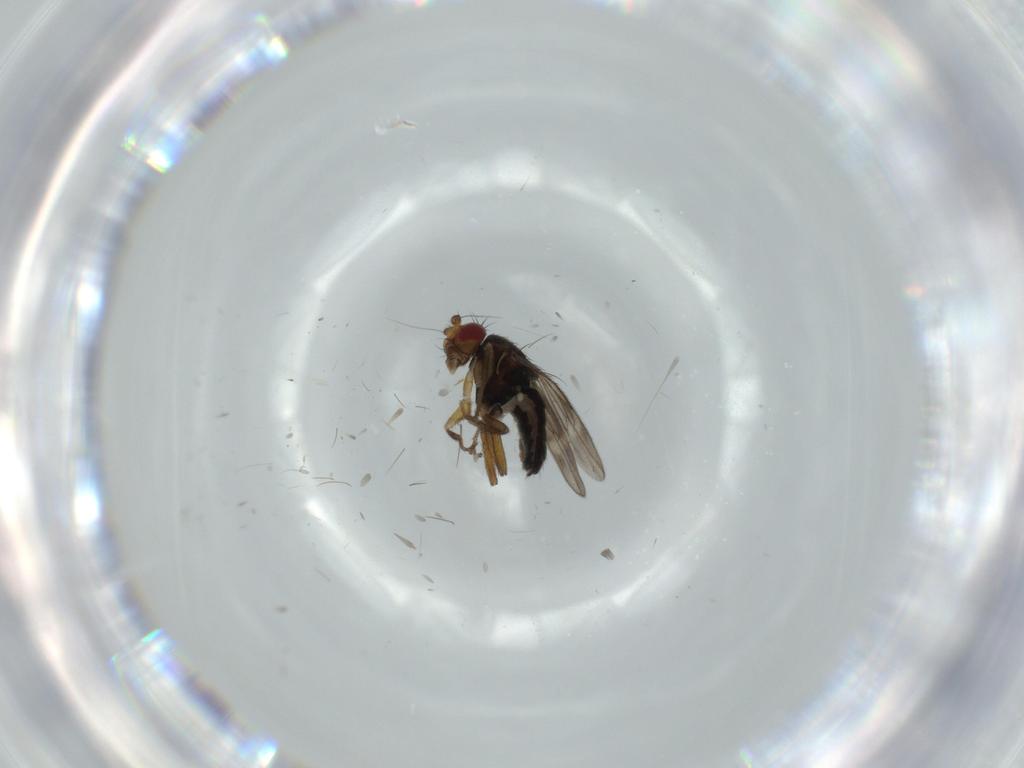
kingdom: Animalia
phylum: Arthropoda
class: Insecta
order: Diptera
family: Sphaeroceridae
